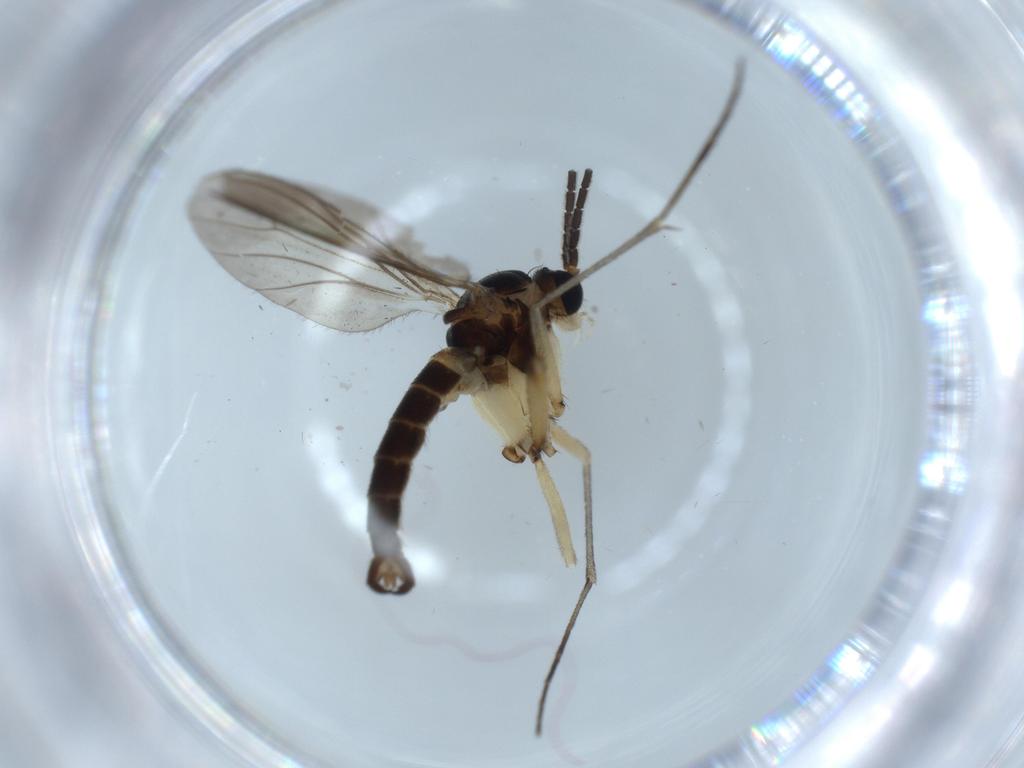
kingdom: Animalia
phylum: Arthropoda
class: Insecta
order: Diptera
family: Sciaridae
